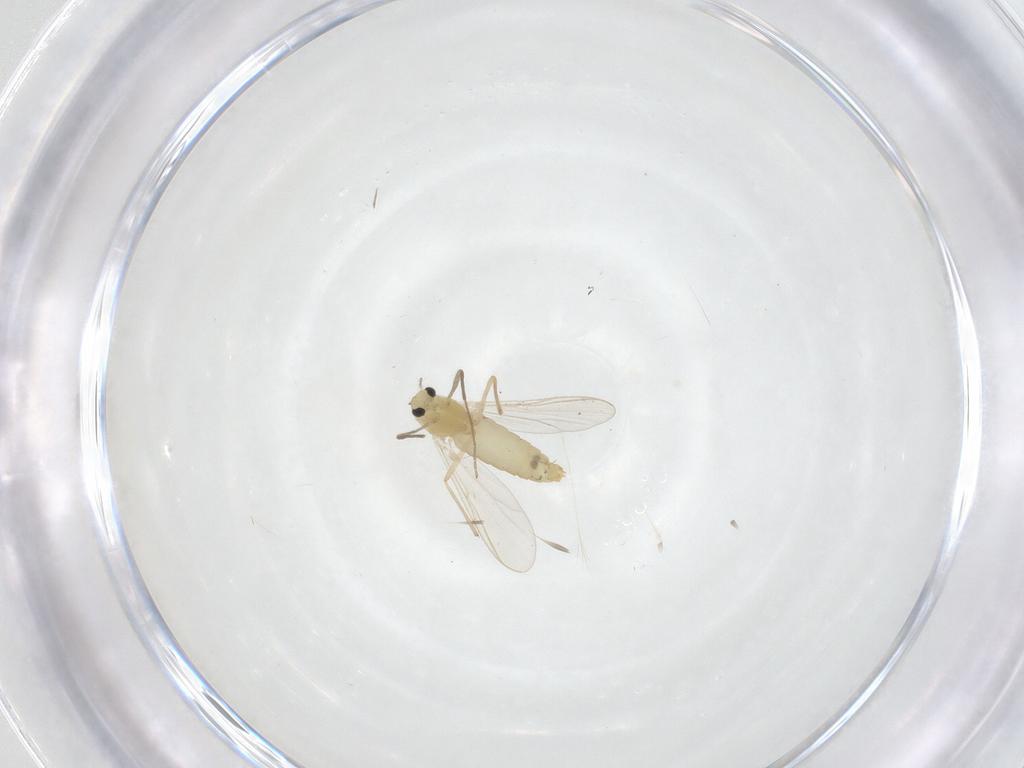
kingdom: Animalia
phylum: Arthropoda
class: Insecta
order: Diptera
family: Chironomidae
